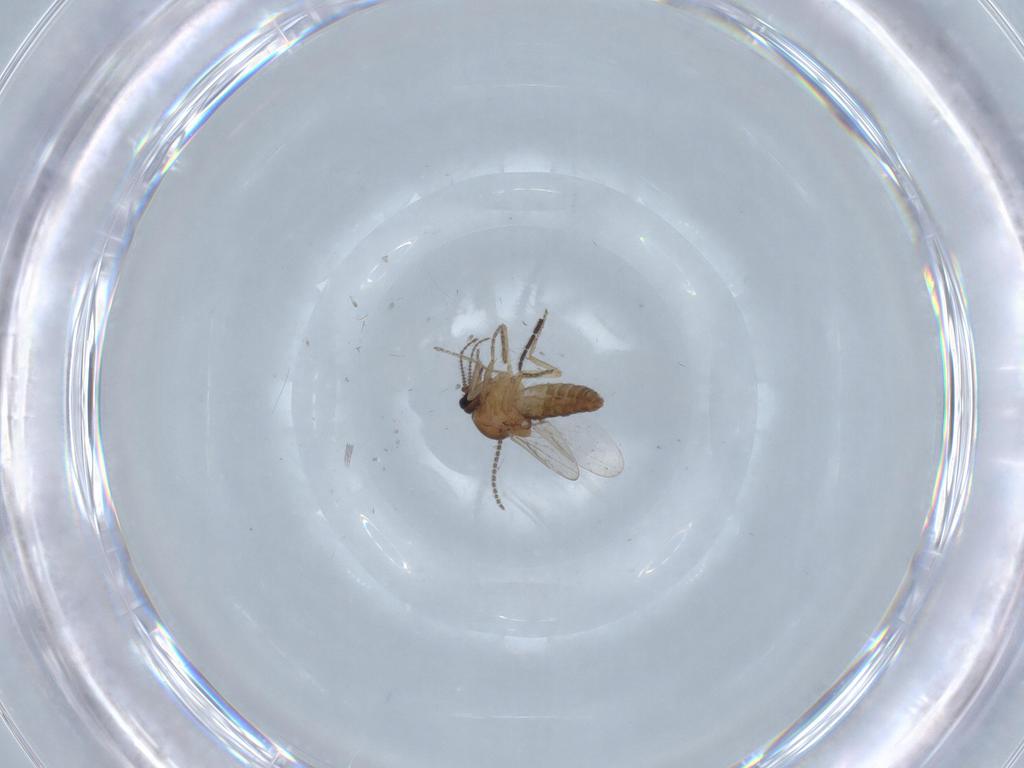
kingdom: Animalia
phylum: Arthropoda
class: Insecta
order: Diptera
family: Ceratopogonidae
